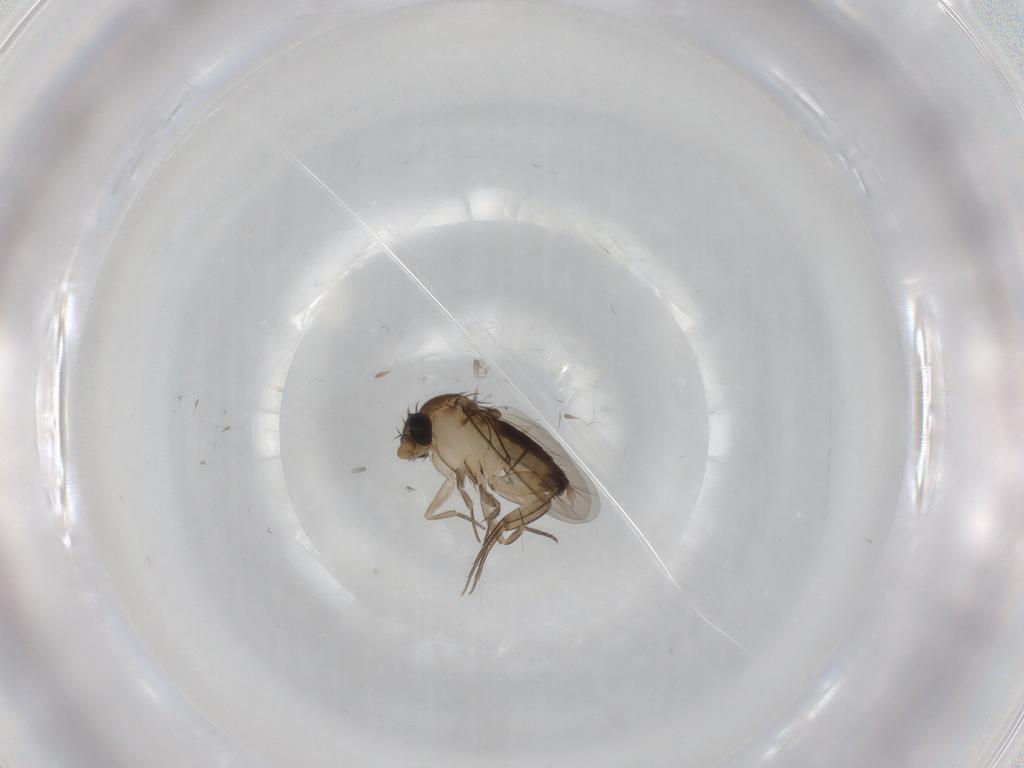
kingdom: Animalia
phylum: Arthropoda
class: Insecta
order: Diptera
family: Phoridae
